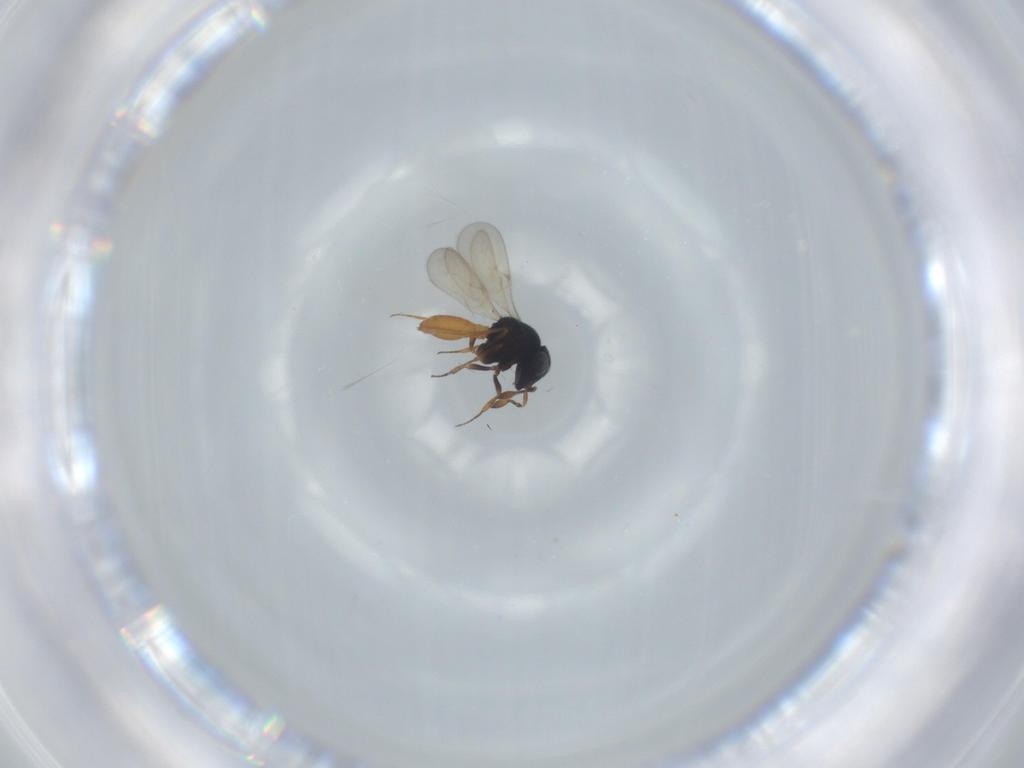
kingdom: Animalia
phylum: Arthropoda
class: Insecta
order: Hymenoptera
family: Scelionidae
